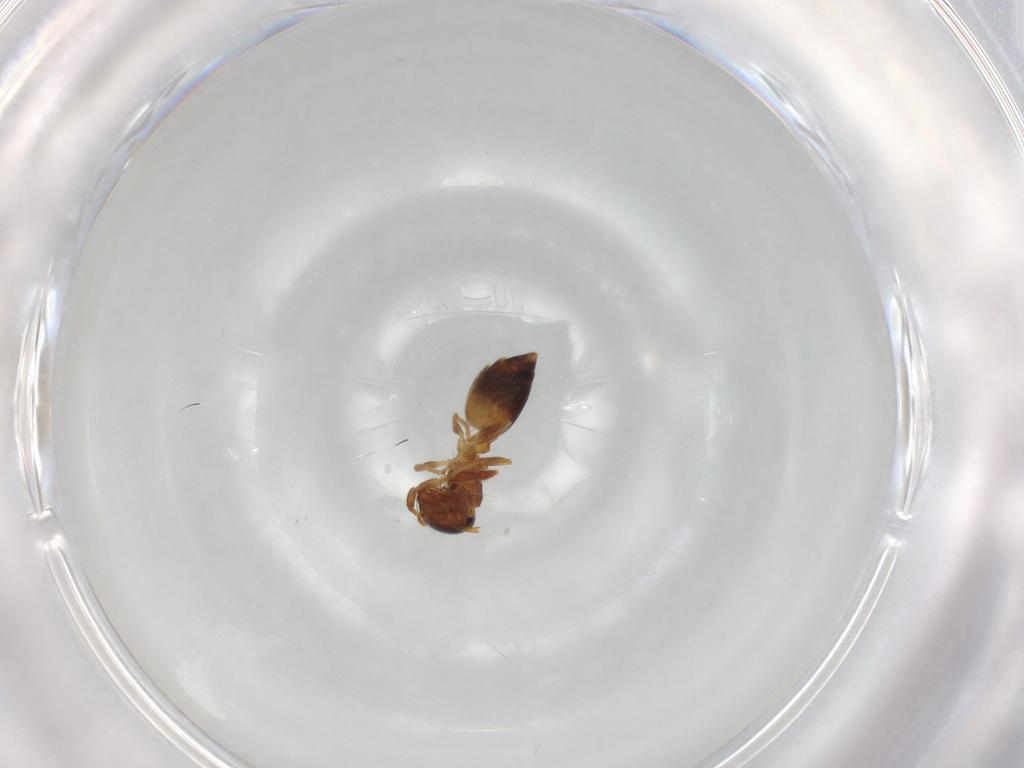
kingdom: Animalia
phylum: Arthropoda
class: Insecta
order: Hymenoptera
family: Formicidae
